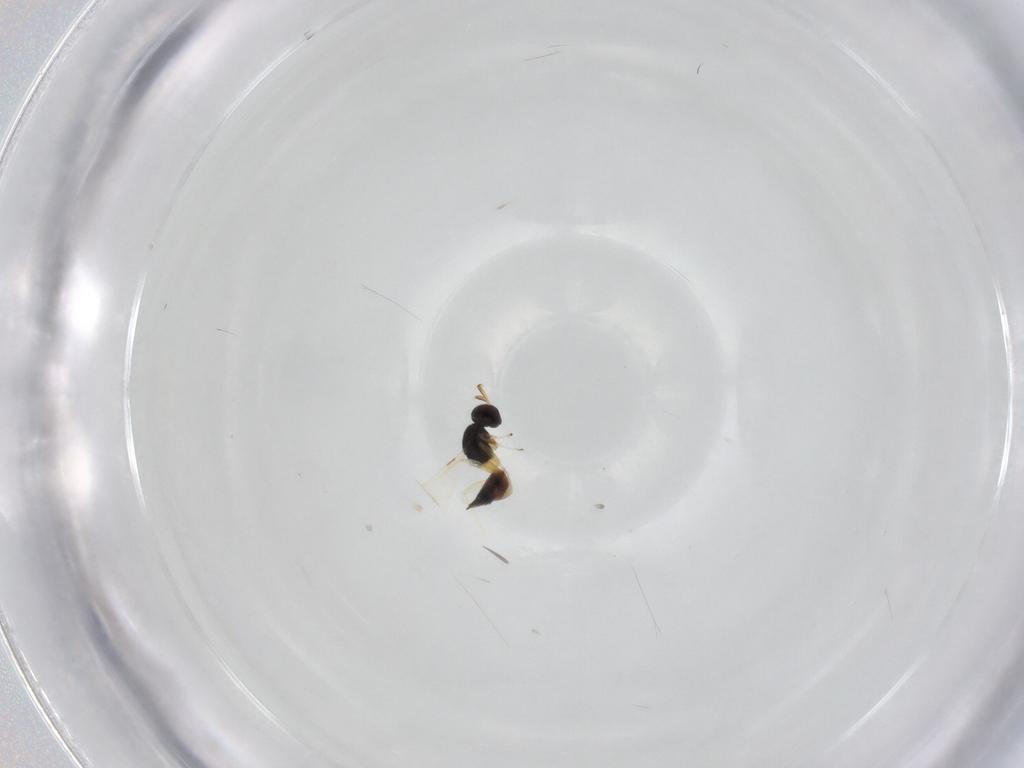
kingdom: Animalia
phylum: Arthropoda
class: Insecta
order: Hymenoptera
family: Mymaridae
